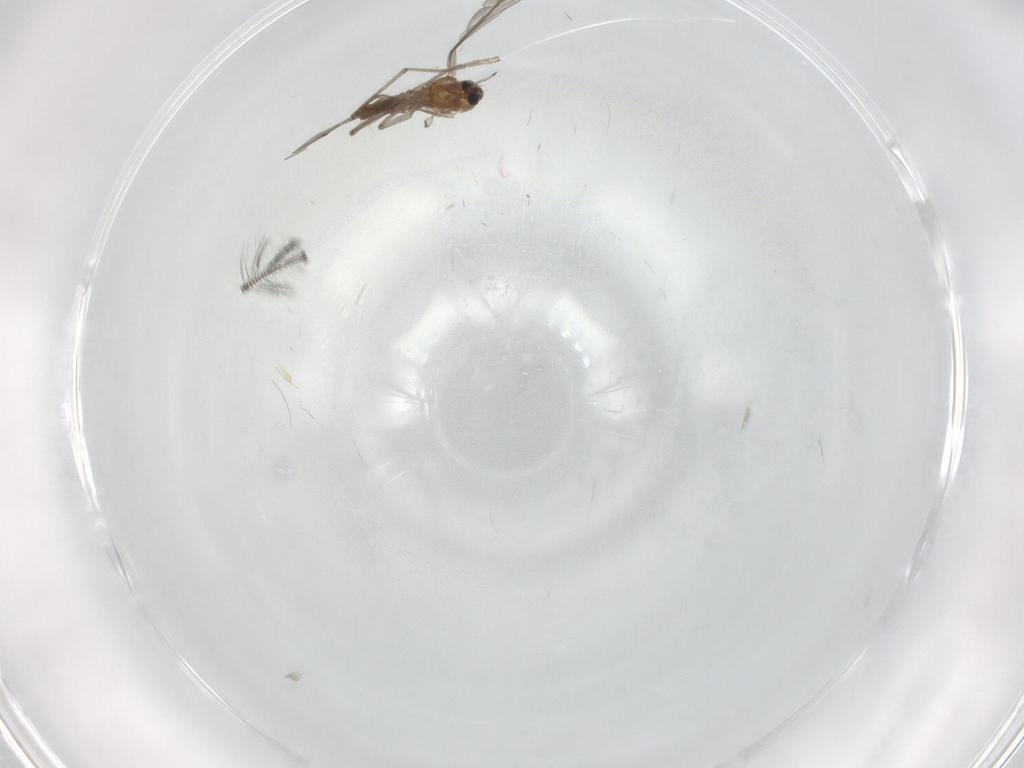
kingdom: Animalia
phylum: Arthropoda
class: Insecta
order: Diptera
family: Chironomidae
